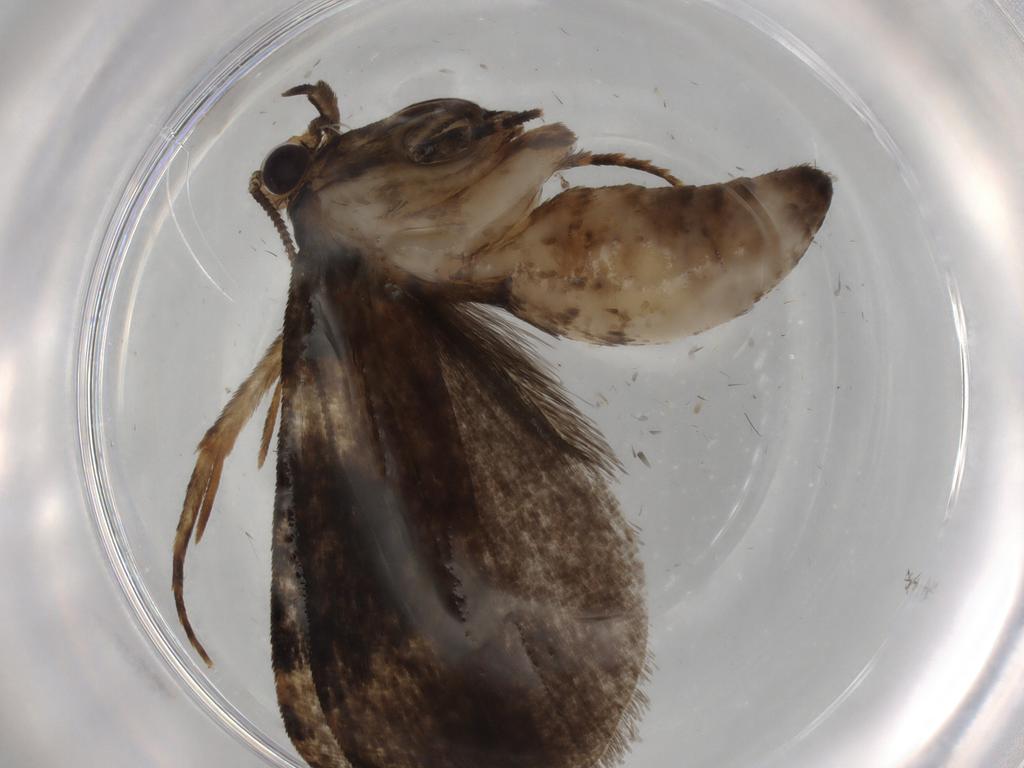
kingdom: Animalia
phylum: Arthropoda
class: Insecta
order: Lepidoptera
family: Tineidae
